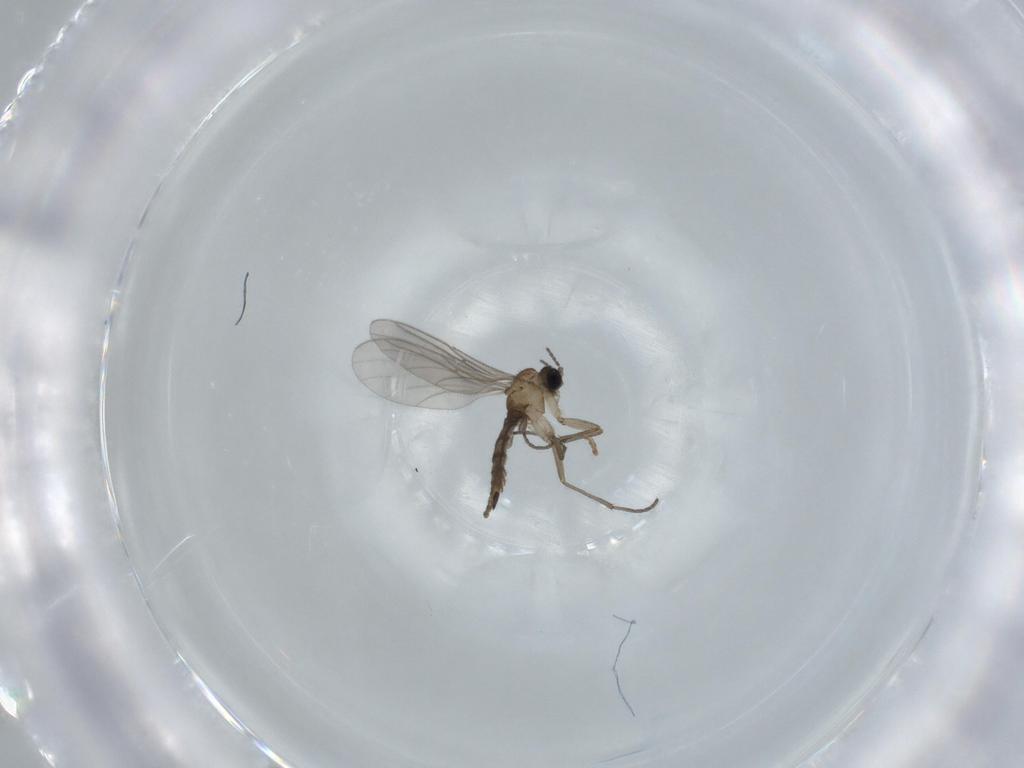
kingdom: Animalia
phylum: Arthropoda
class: Insecta
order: Diptera
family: Sciaridae
